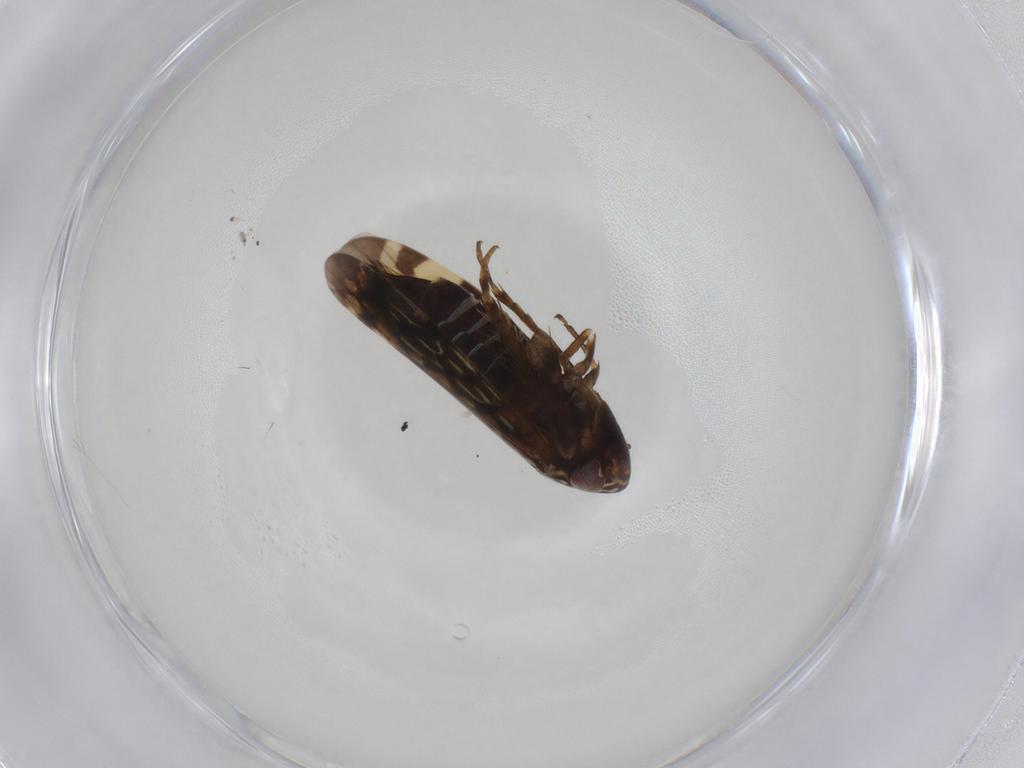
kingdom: Animalia
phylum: Arthropoda
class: Insecta
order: Hemiptera
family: Cicadellidae
